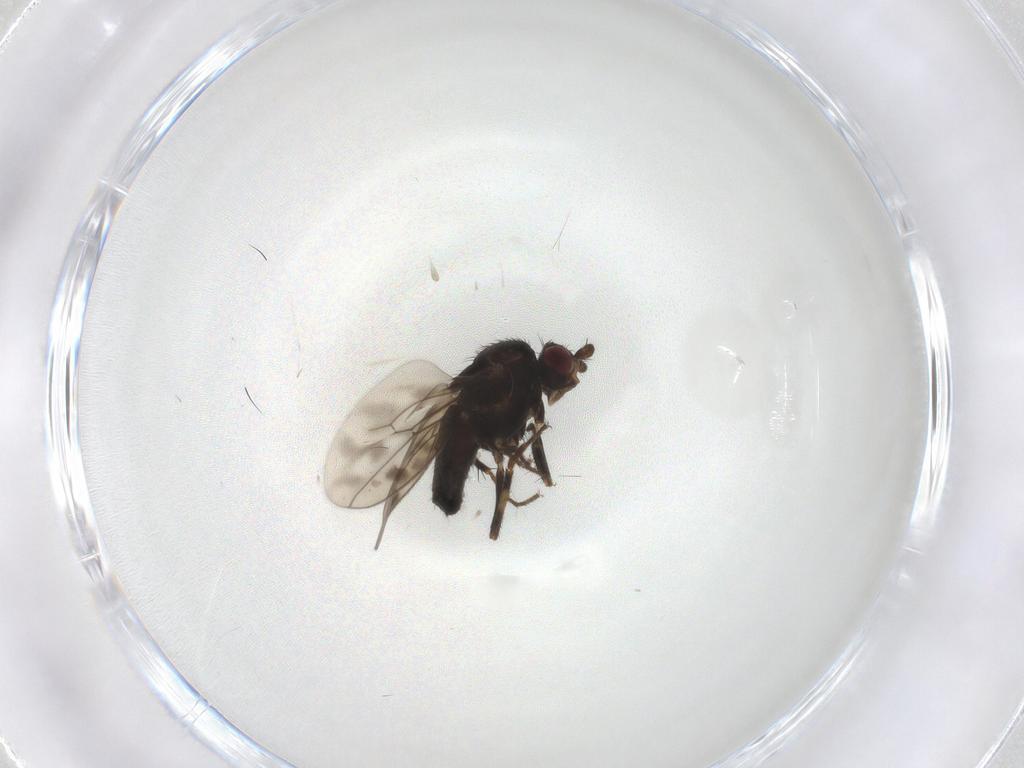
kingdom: Animalia
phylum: Arthropoda
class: Insecta
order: Diptera
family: Sphaeroceridae
